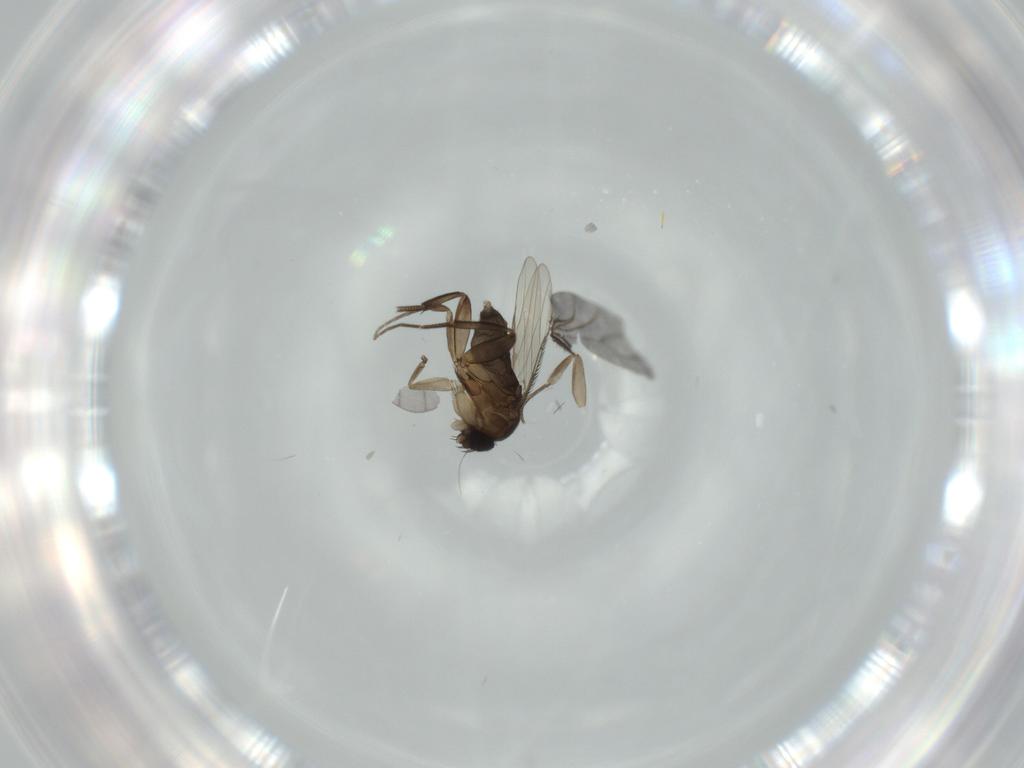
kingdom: Animalia
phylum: Arthropoda
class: Insecta
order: Diptera
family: Phoridae
